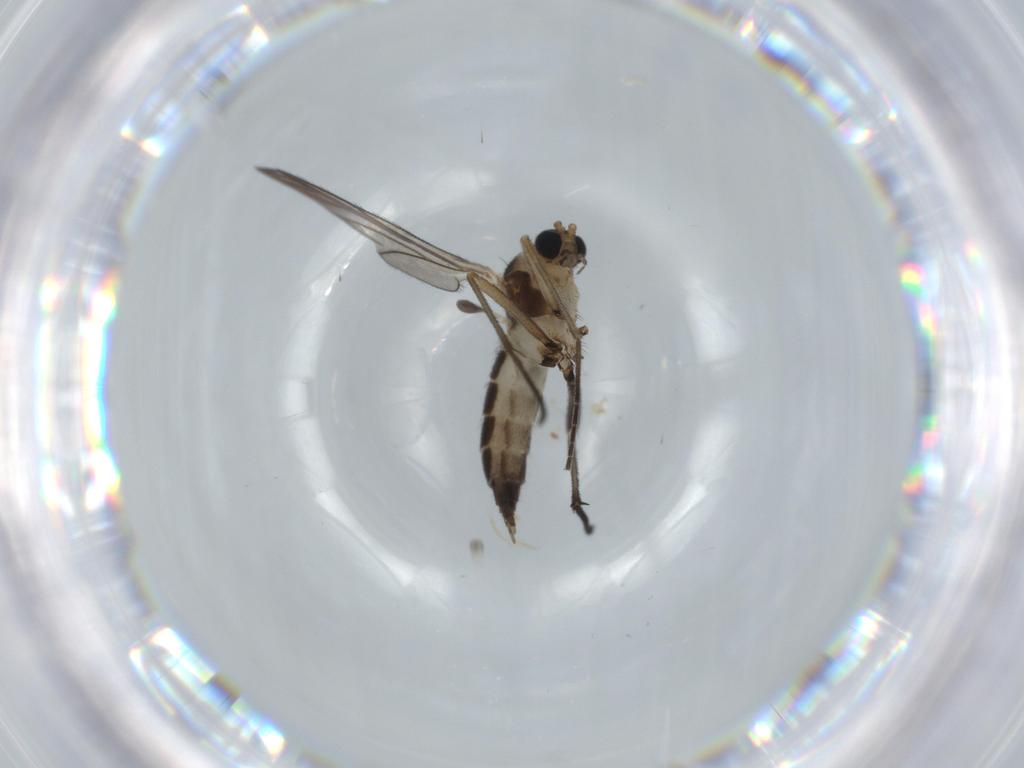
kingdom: Animalia
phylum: Arthropoda
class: Insecta
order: Diptera
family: Sciaridae
